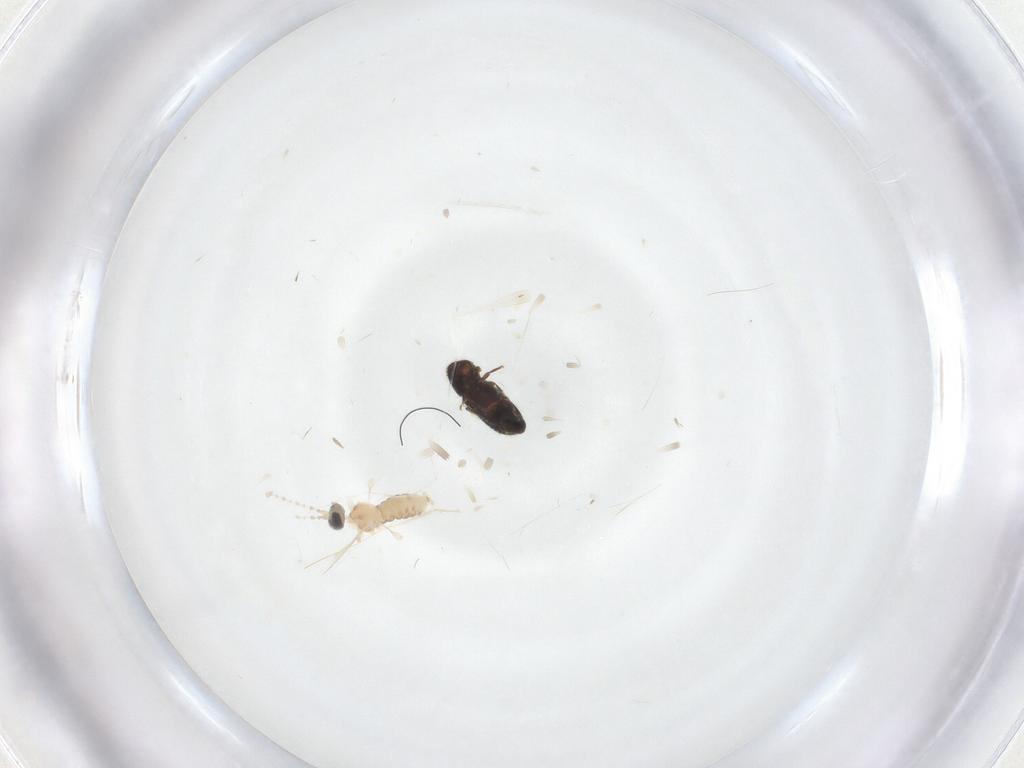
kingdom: Animalia
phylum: Arthropoda
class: Insecta
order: Diptera
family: Cecidomyiidae
